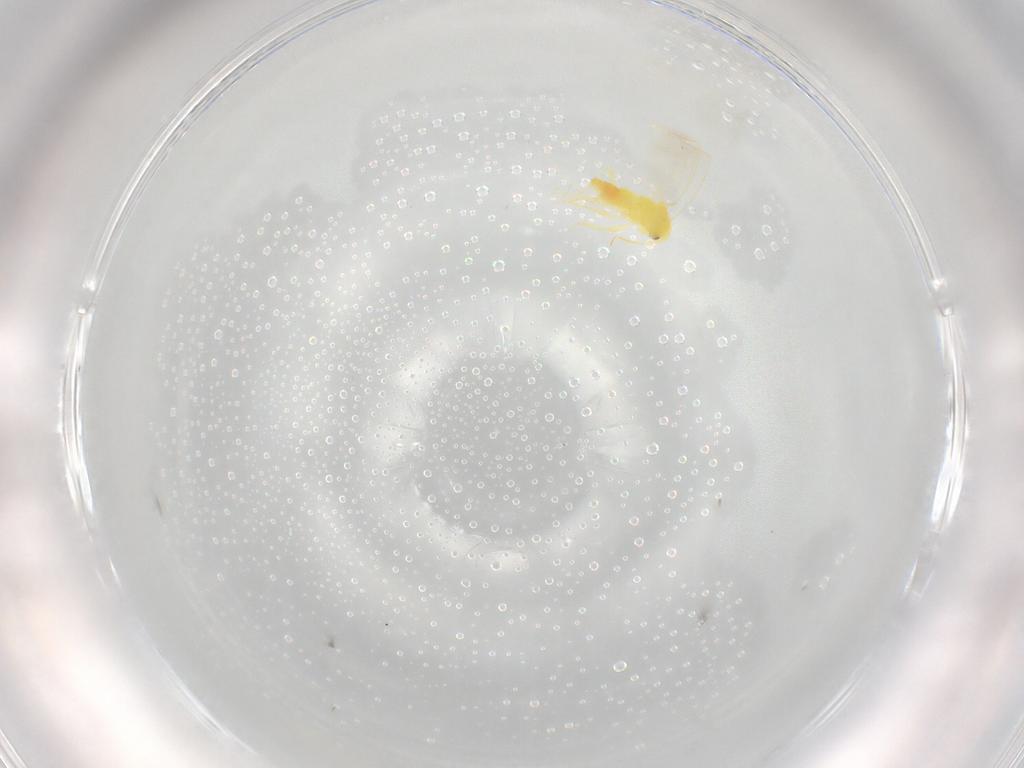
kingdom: Animalia
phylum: Arthropoda
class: Insecta
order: Hemiptera
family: Aleyrodidae
